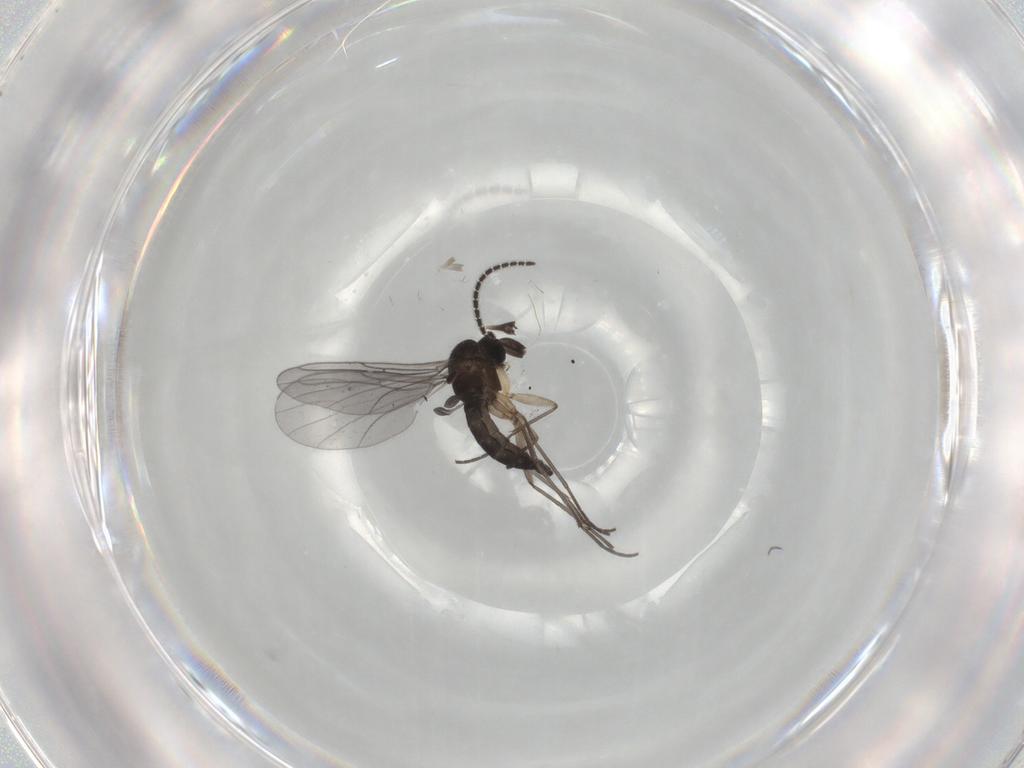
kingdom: Animalia
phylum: Arthropoda
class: Insecta
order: Diptera
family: Sciaridae
